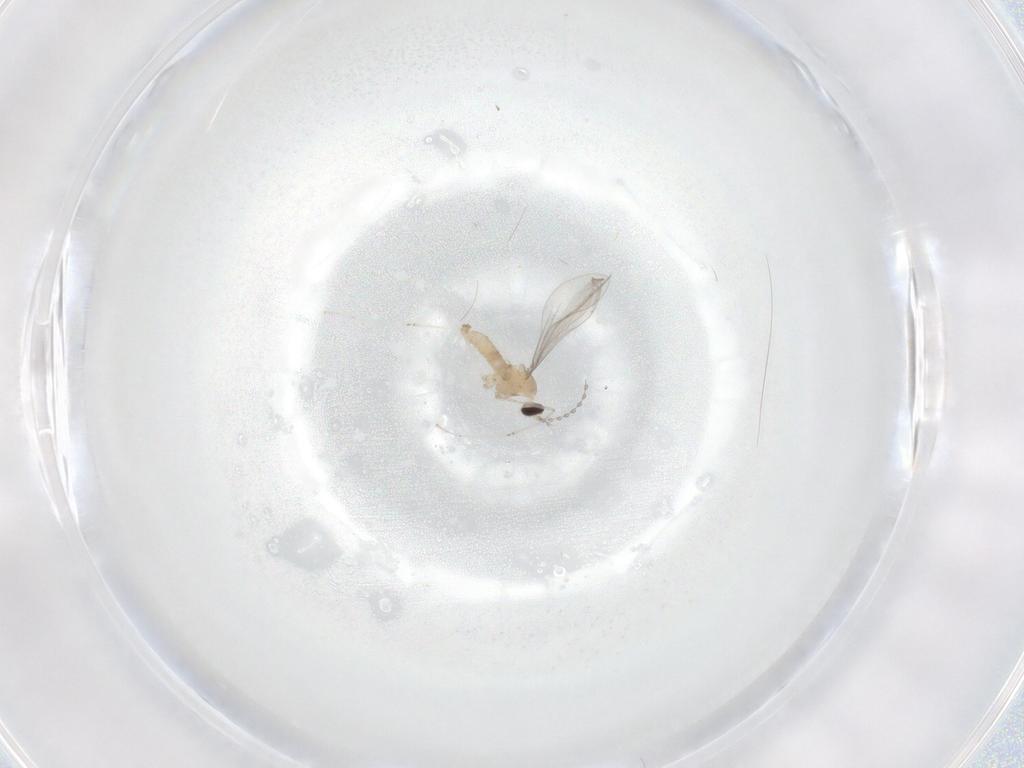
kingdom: Animalia
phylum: Arthropoda
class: Insecta
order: Diptera
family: Cecidomyiidae
